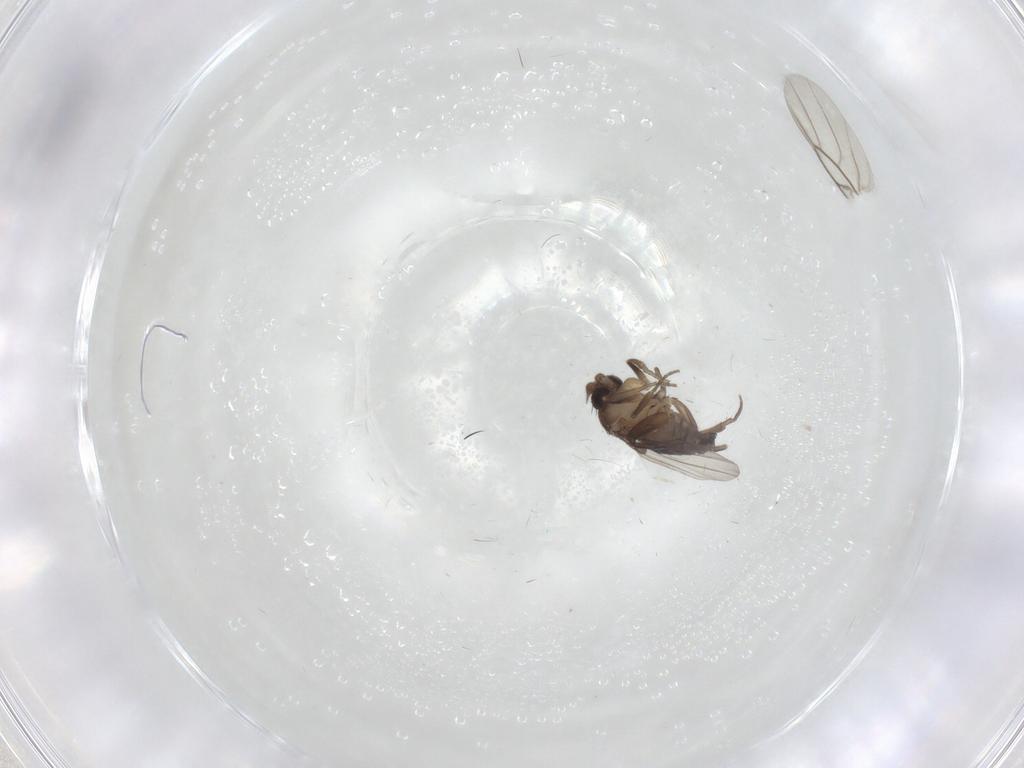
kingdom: Animalia
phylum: Arthropoda
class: Insecta
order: Diptera
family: Phoridae
